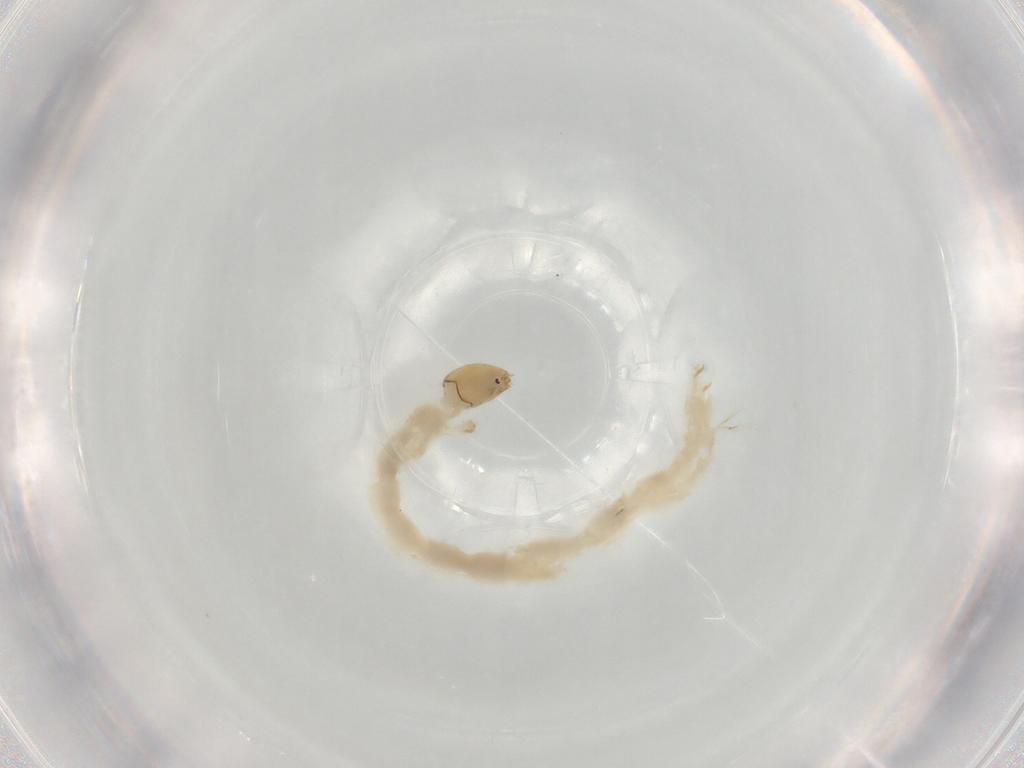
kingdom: Animalia
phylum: Arthropoda
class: Insecta
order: Diptera
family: Chironomidae
